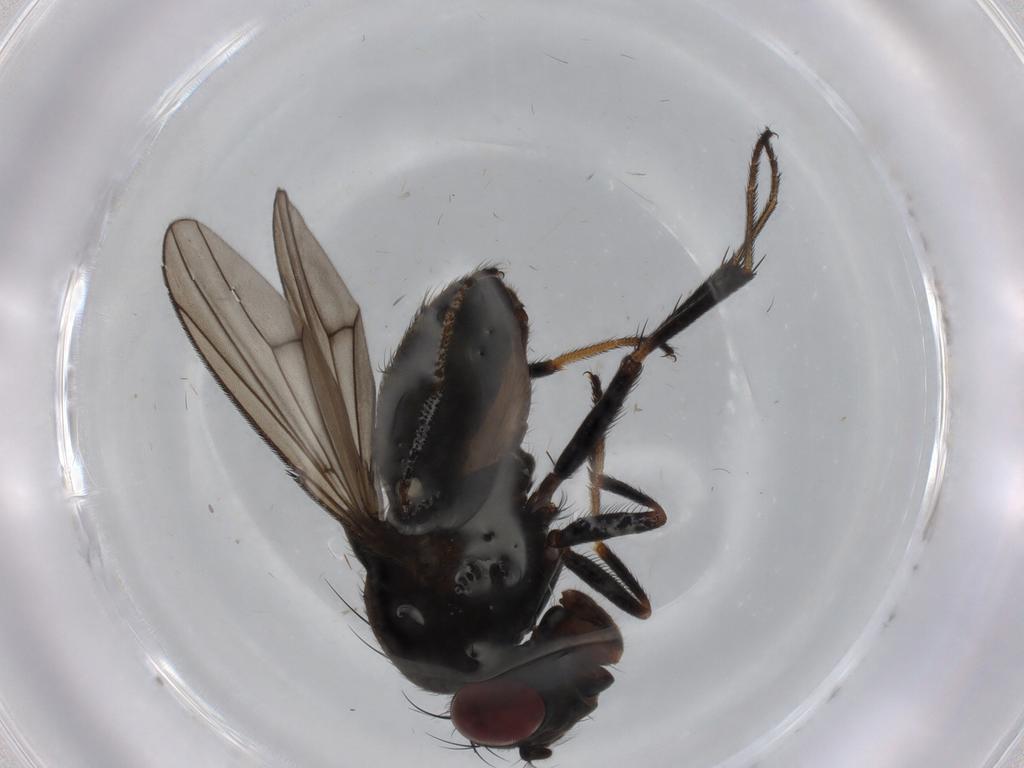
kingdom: Animalia
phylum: Arthropoda
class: Insecta
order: Diptera
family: Ephydridae
